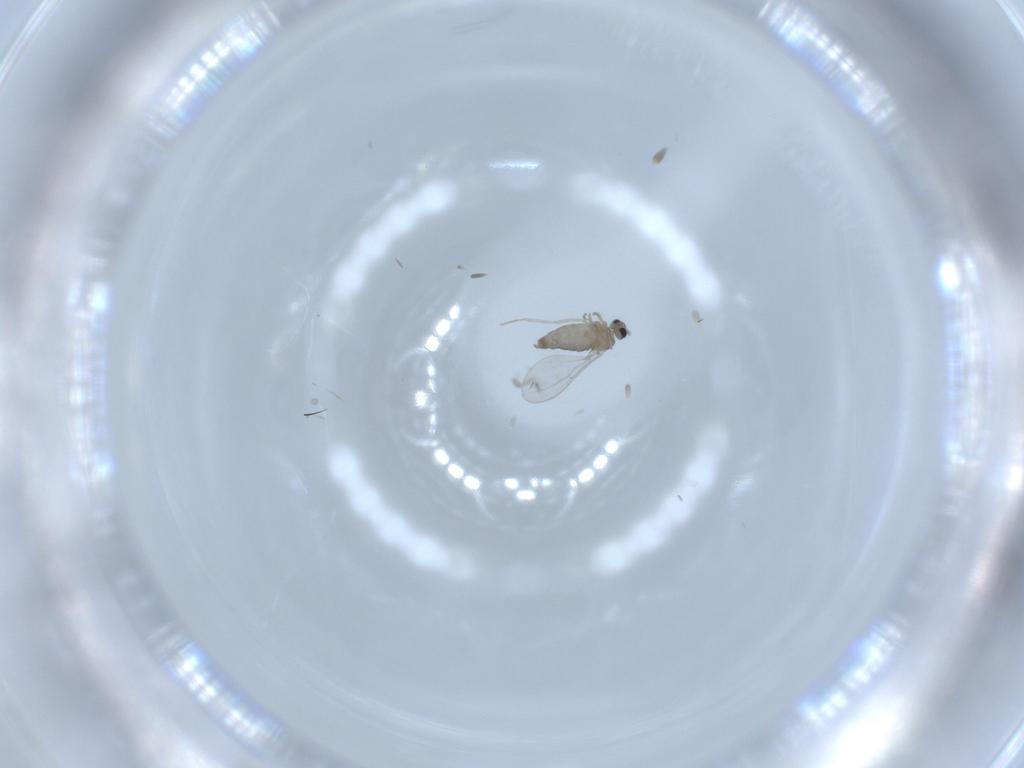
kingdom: Animalia
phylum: Arthropoda
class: Insecta
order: Diptera
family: Cecidomyiidae
